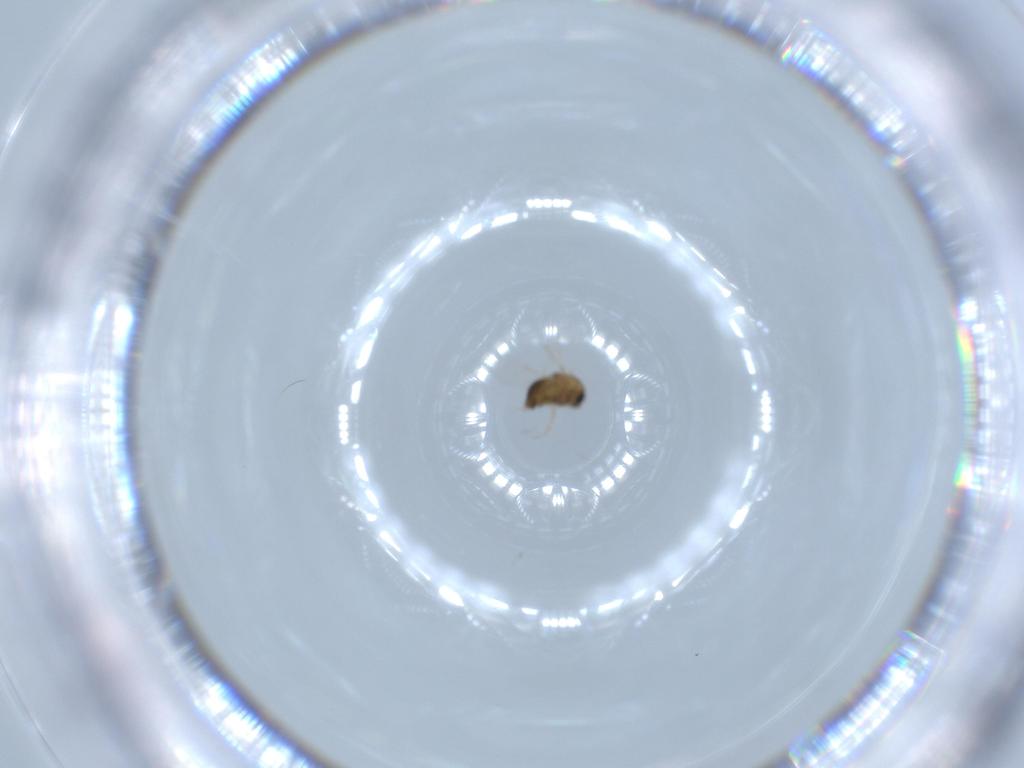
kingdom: Animalia
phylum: Arthropoda
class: Insecta
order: Diptera
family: Chironomidae
